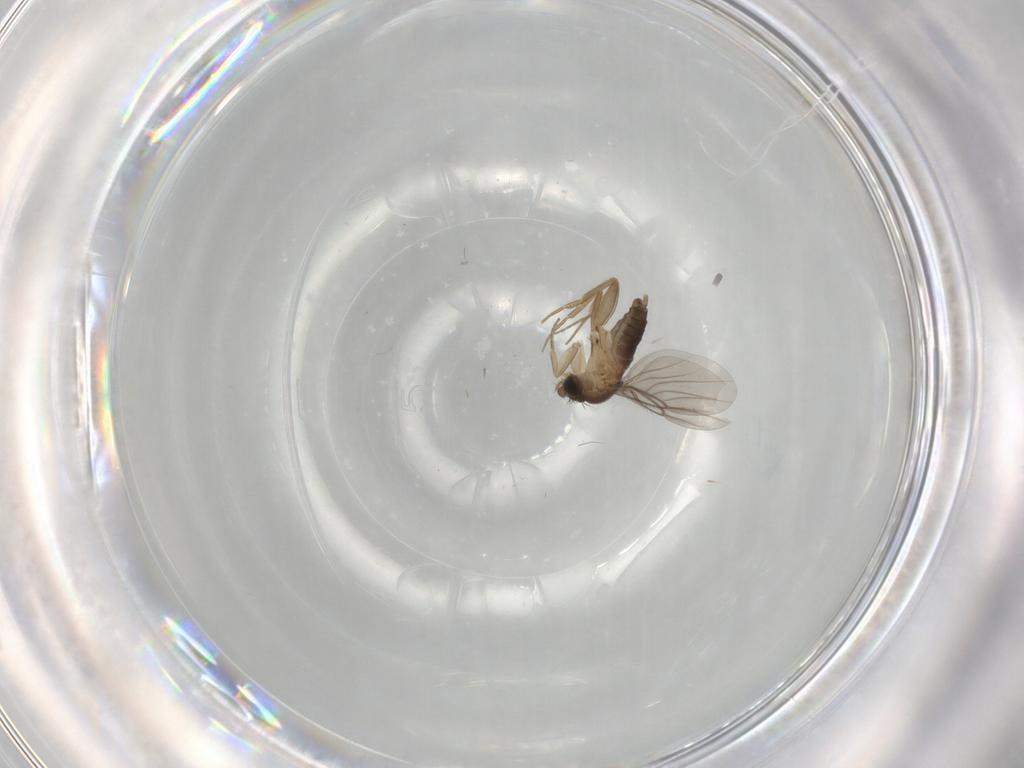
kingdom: Animalia
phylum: Arthropoda
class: Insecta
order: Diptera
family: Phoridae
